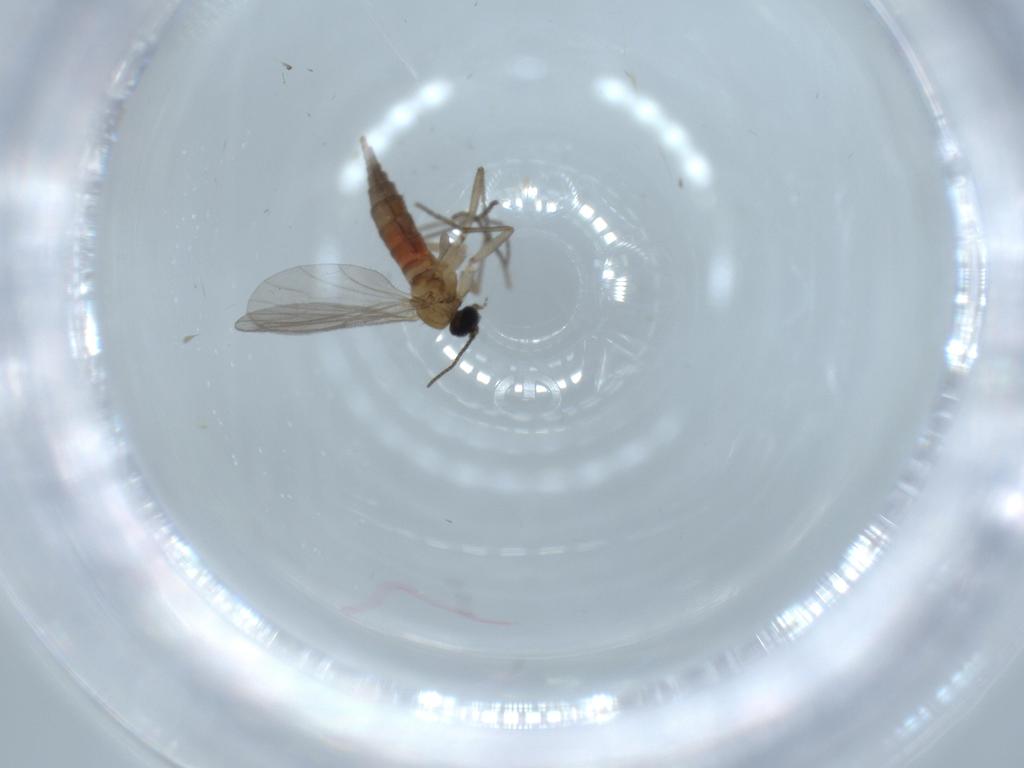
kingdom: Animalia
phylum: Arthropoda
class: Insecta
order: Diptera
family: Sciaridae
